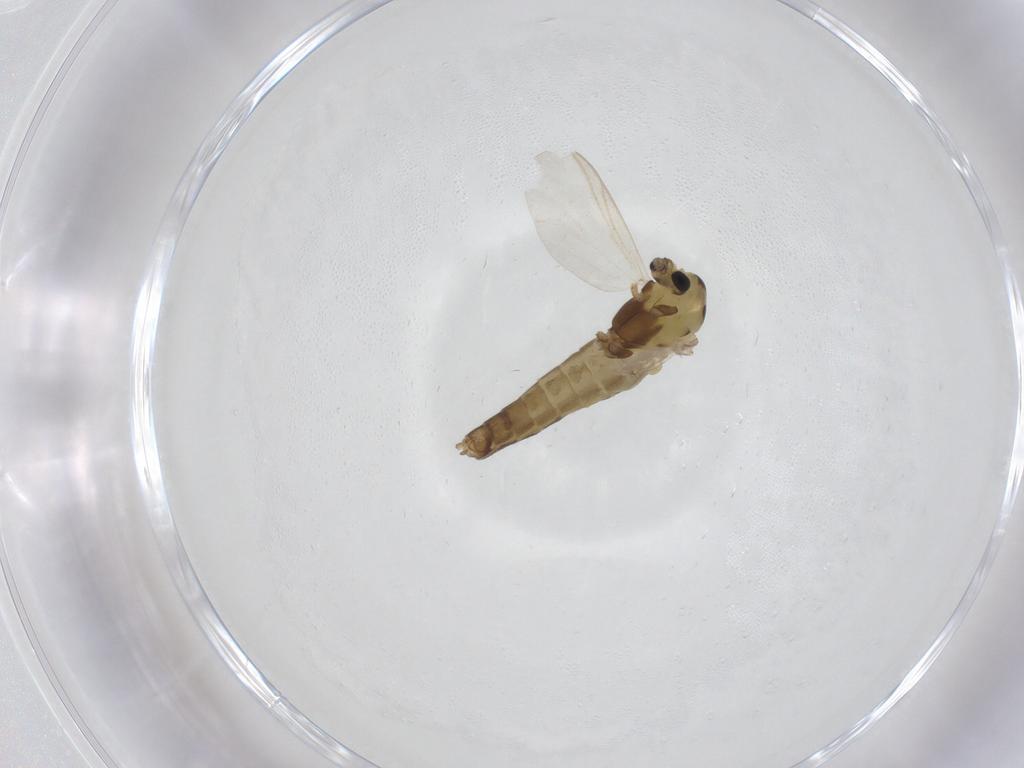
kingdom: Animalia
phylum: Arthropoda
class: Insecta
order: Diptera
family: Chironomidae
